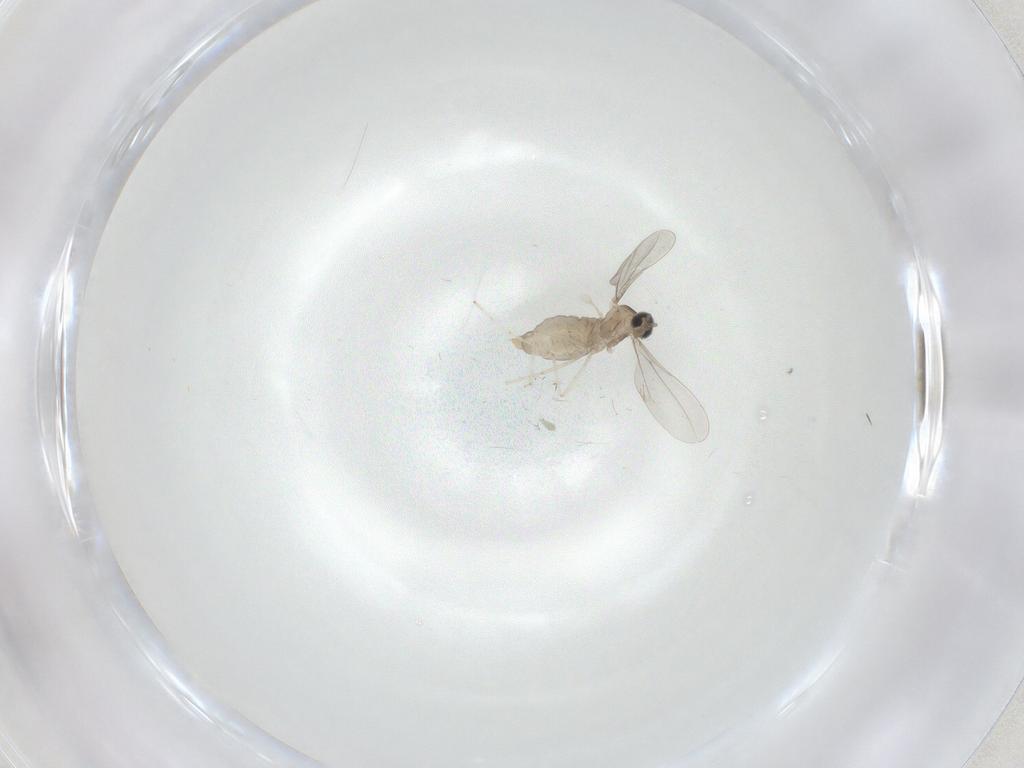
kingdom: Animalia
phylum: Arthropoda
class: Insecta
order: Diptera
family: Cecidomyiidae
